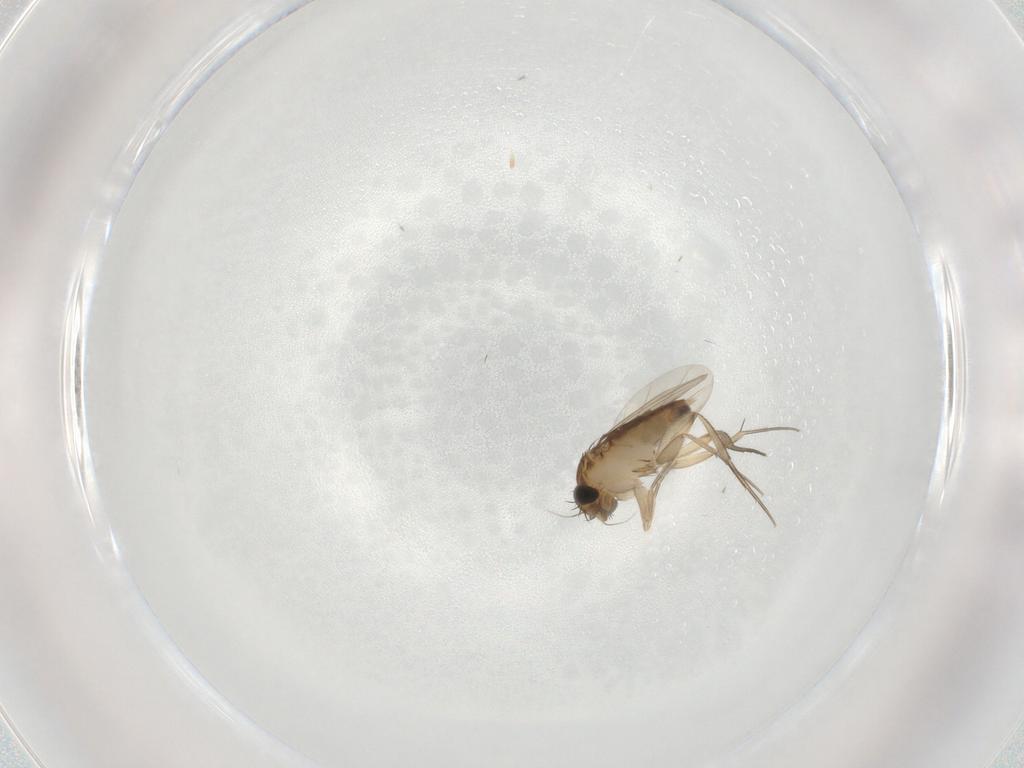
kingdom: Animalia
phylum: Arthropoda
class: Insecta
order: Diptera
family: Phoridae
